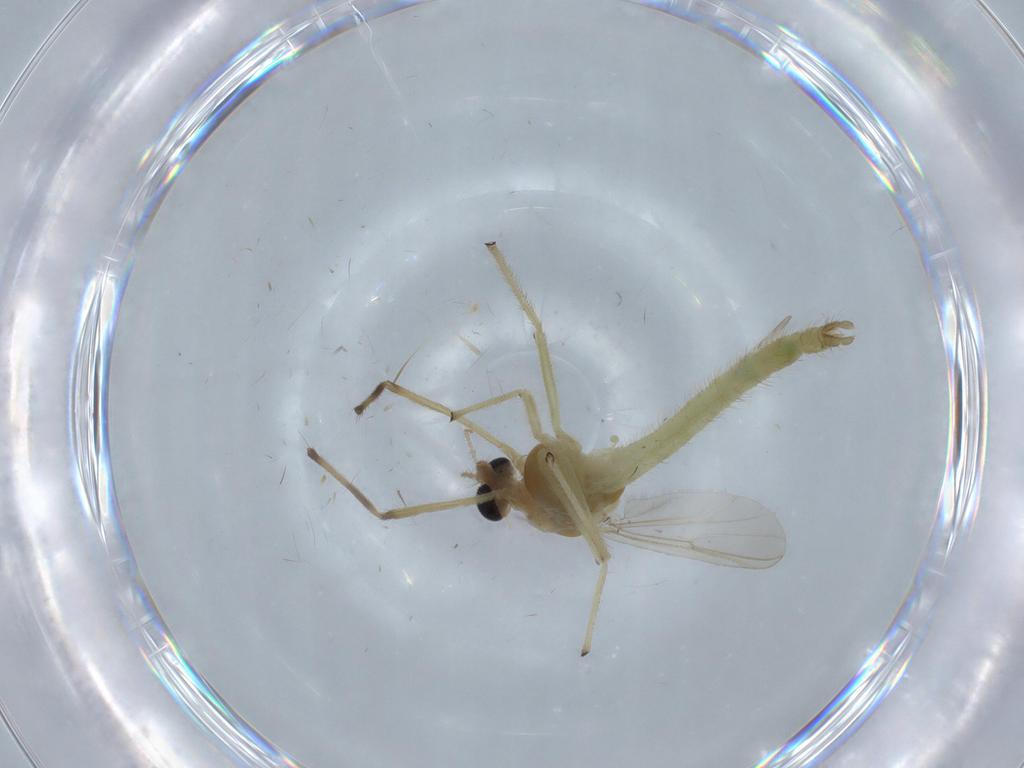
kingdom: Animalia
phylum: Arthropoda
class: Insecta
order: Diptera
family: Chironomidae
